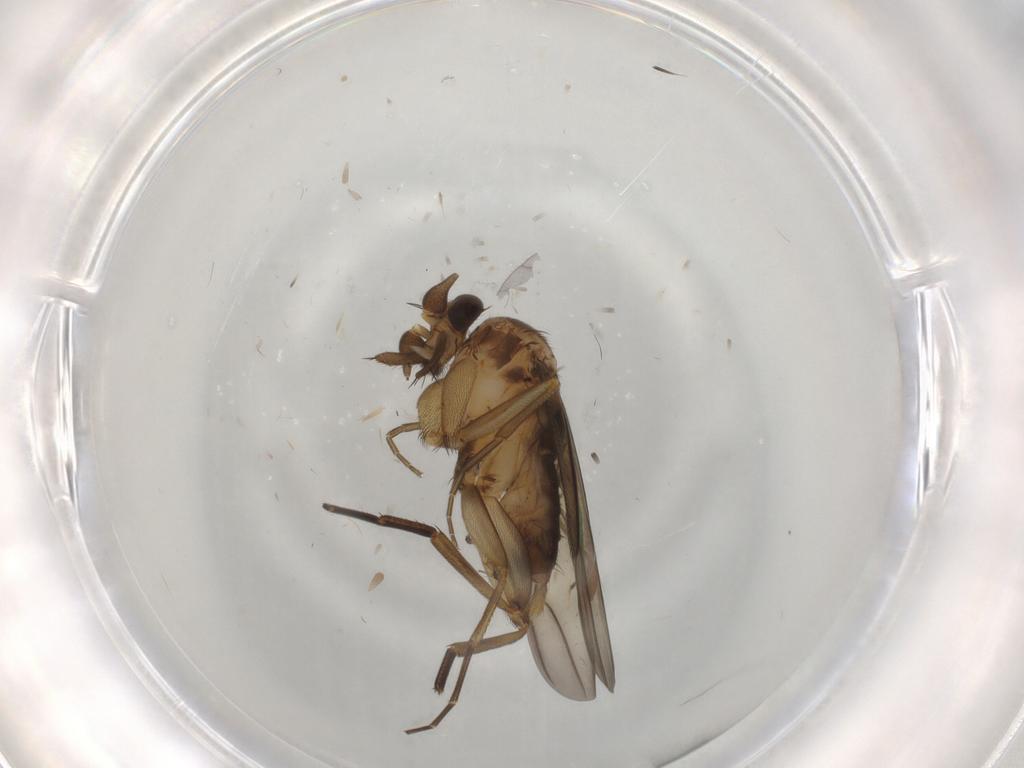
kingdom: Animalia
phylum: Arthropoda
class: Insecta
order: Diptera
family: Phoridae
